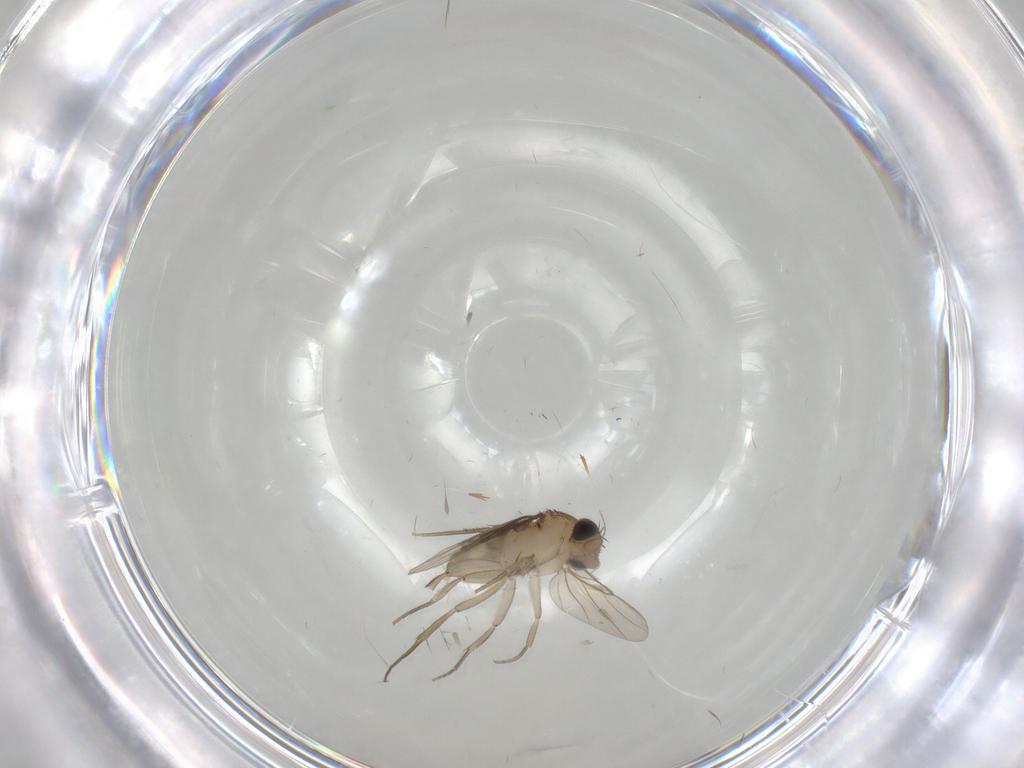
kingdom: Animalia
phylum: Arthropoda
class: Insecta
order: Diptera
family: Phoridae
